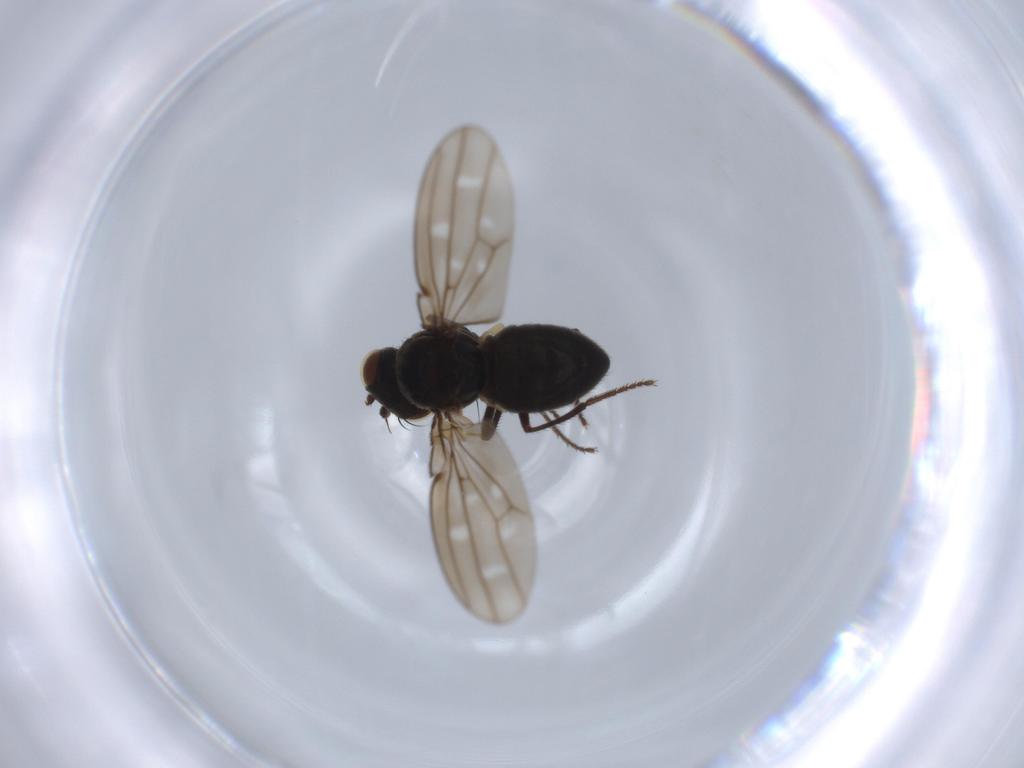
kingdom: Animalia
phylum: Arthropoda
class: Insecta
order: Diptera
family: Ephydridae
